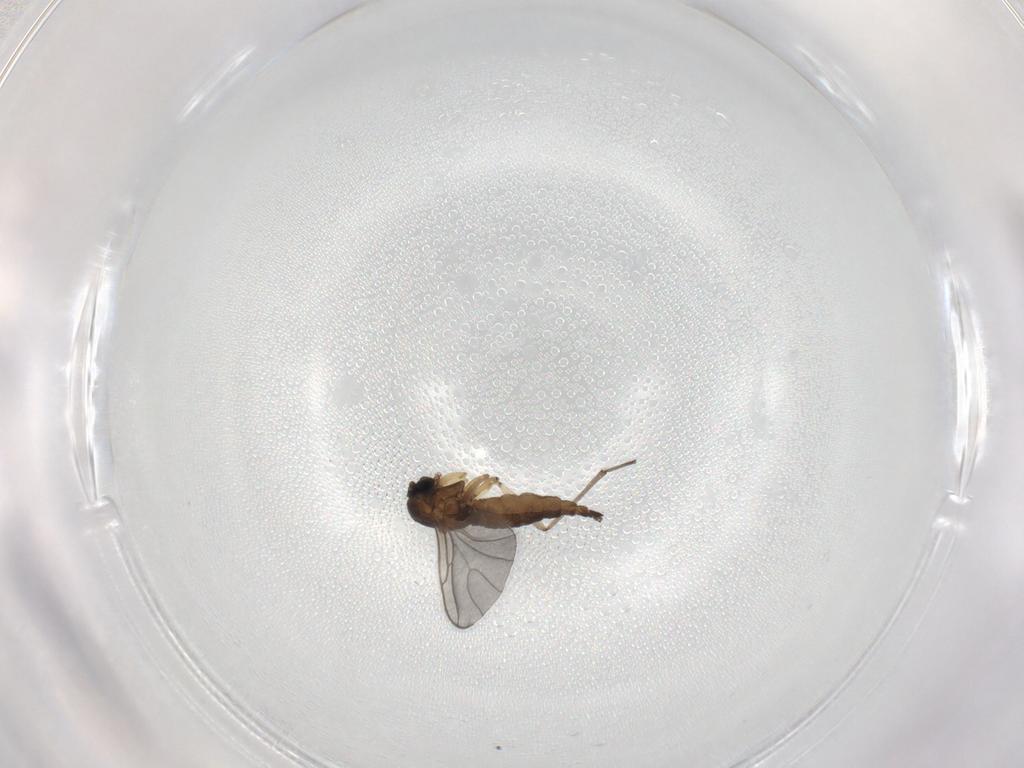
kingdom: Animalia
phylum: Arthropoda
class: Insecta
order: Diptera
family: Sciaridae
